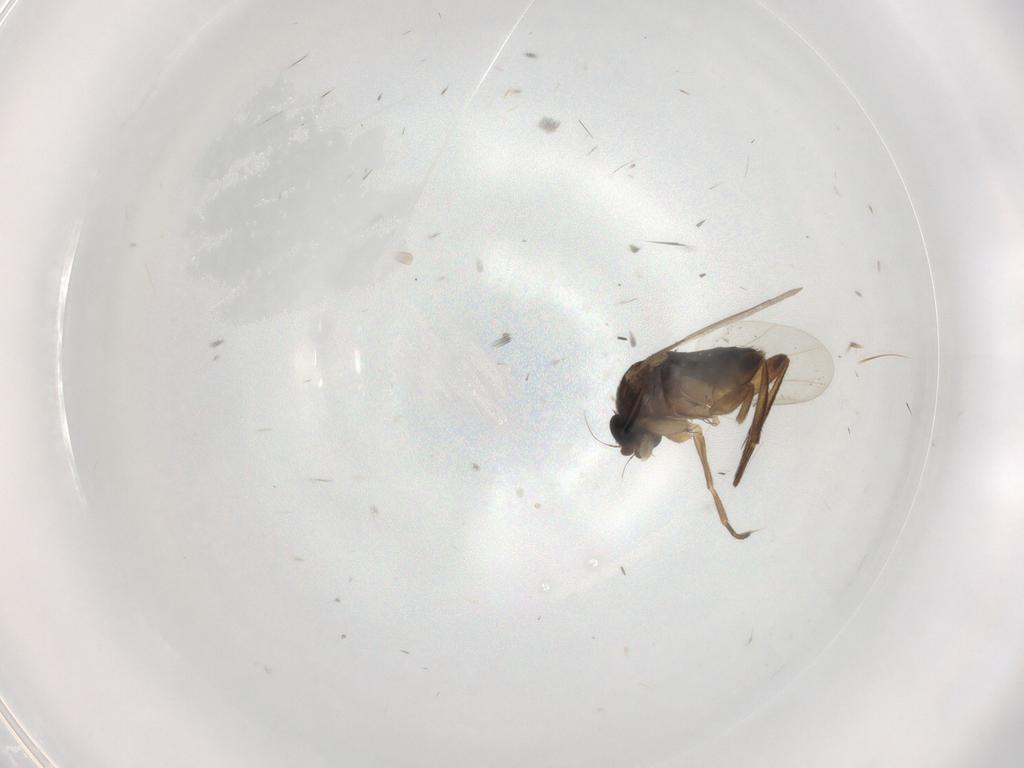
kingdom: Animalia
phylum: Arthropoda
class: Insecta
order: Diptera
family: Phoridae
